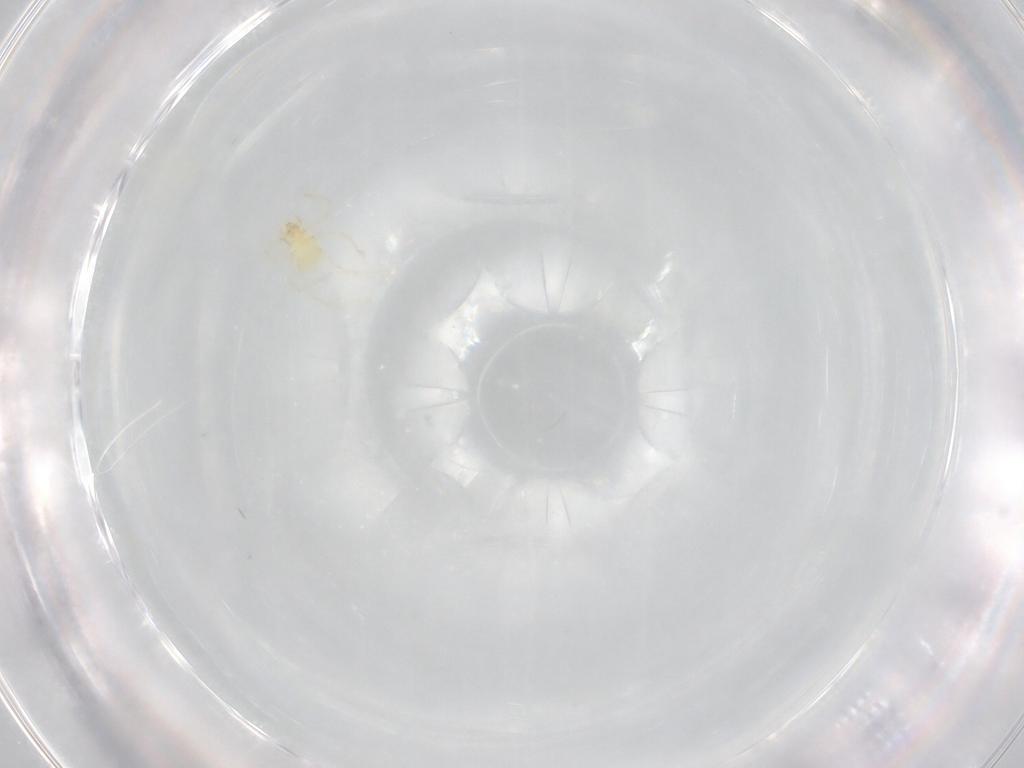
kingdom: Animalia
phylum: Arthropoda
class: Arachnida
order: Trombidiformes
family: Erythraeidae
